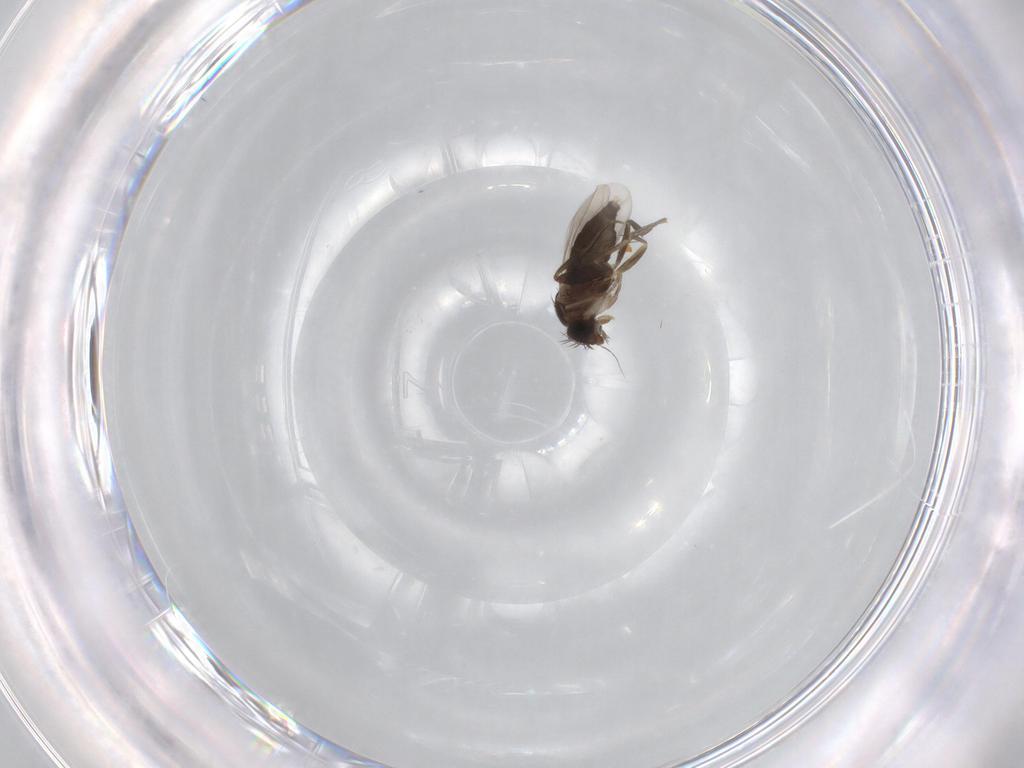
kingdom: Animalia
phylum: Arthropoda
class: Insecta
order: Diptera
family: Phoridae
